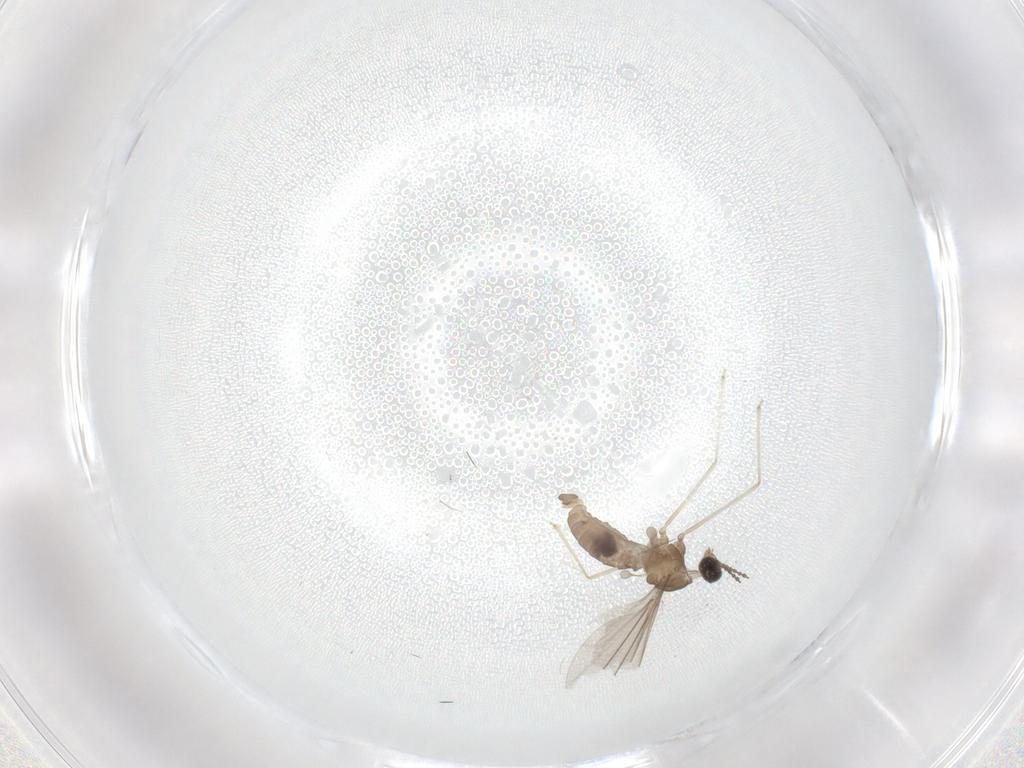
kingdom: Animalia
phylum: Arthropoda
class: Insecta
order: Diptera
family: Cecidomyiidae
